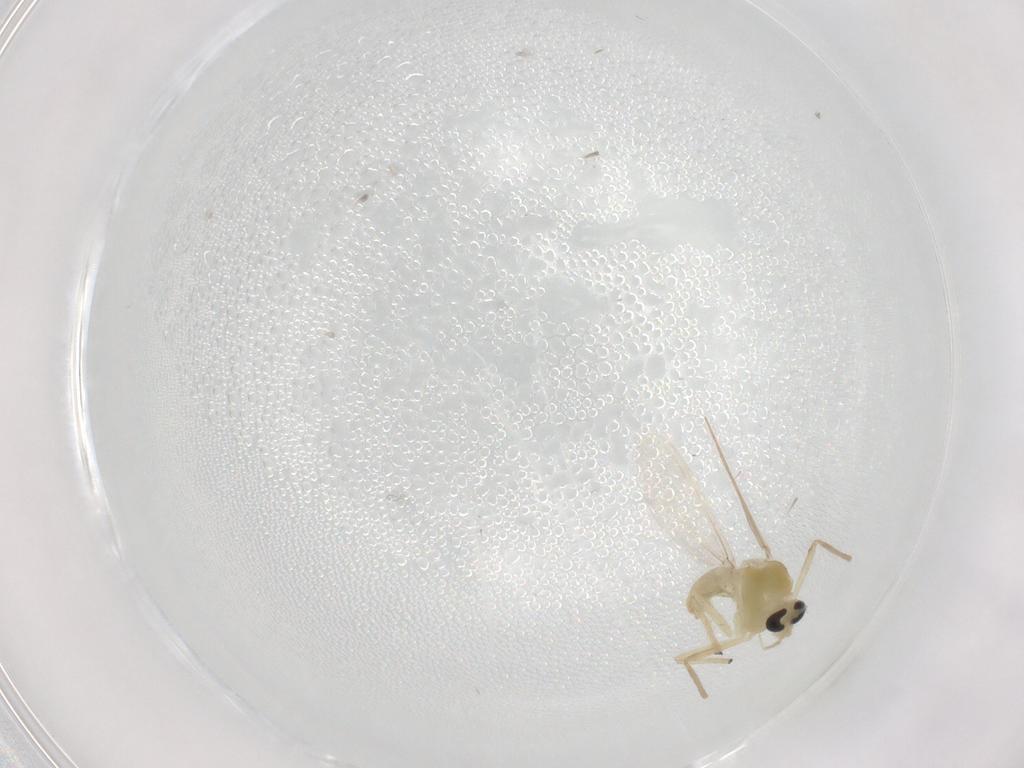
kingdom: Animalia
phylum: Arthropoda
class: Insecta
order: Diptera
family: Chironomidae
